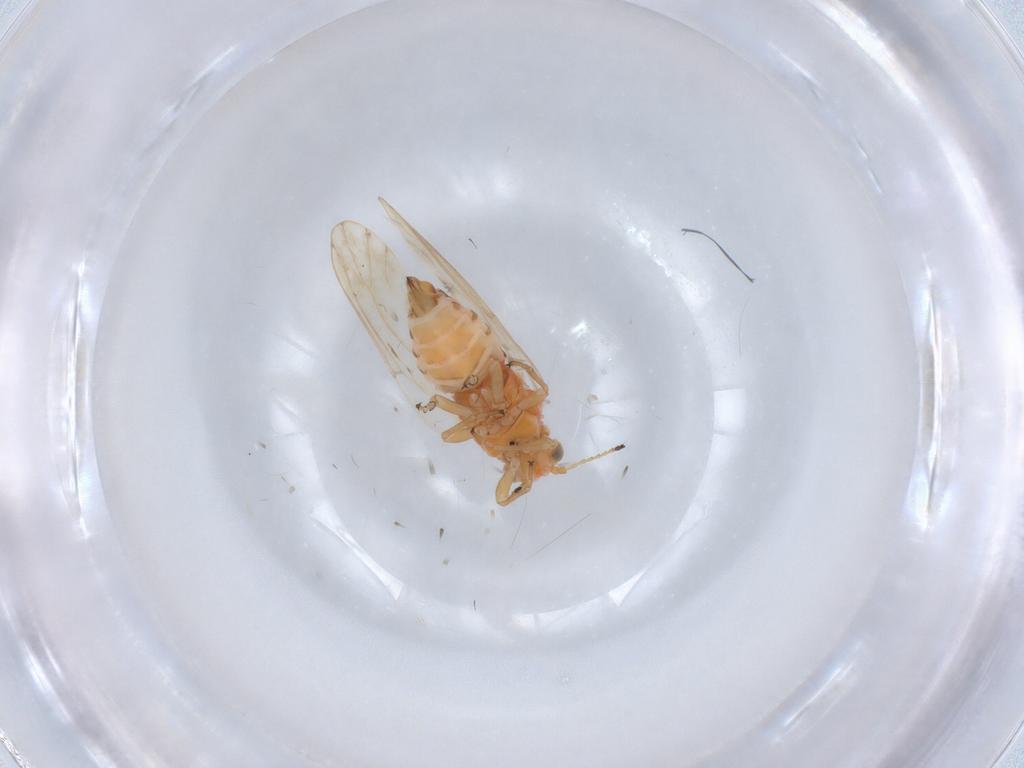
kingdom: Animalia
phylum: Arthropoda
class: Insecta
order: Hemiptera
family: Aphalaridae
